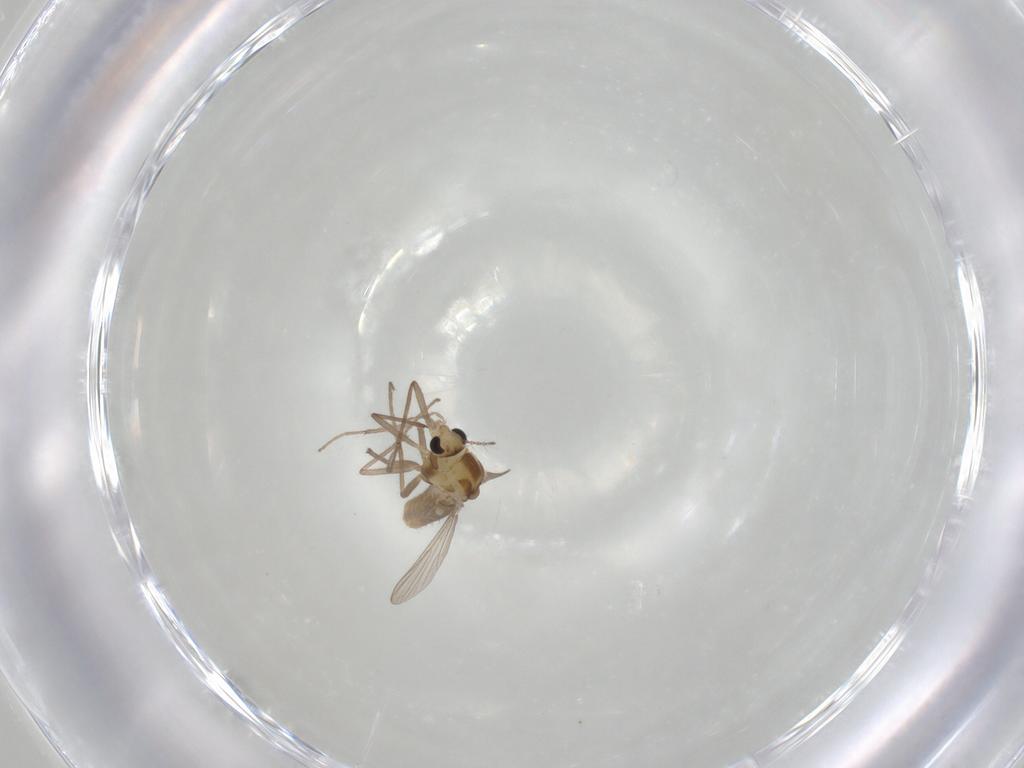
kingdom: Animalia
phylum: Arthropoda
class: Insecta
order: Diptera
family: Chironomidae
